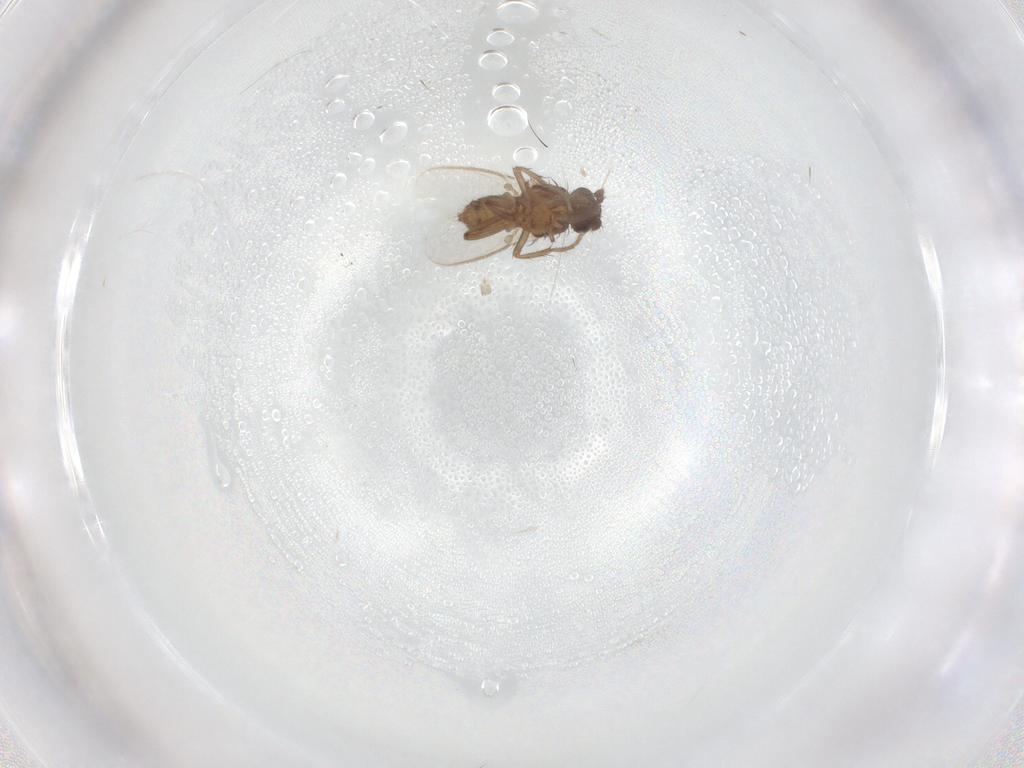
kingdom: Animalia
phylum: Arthropoda
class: Insecta
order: Diptera
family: Sphaeroceridae
